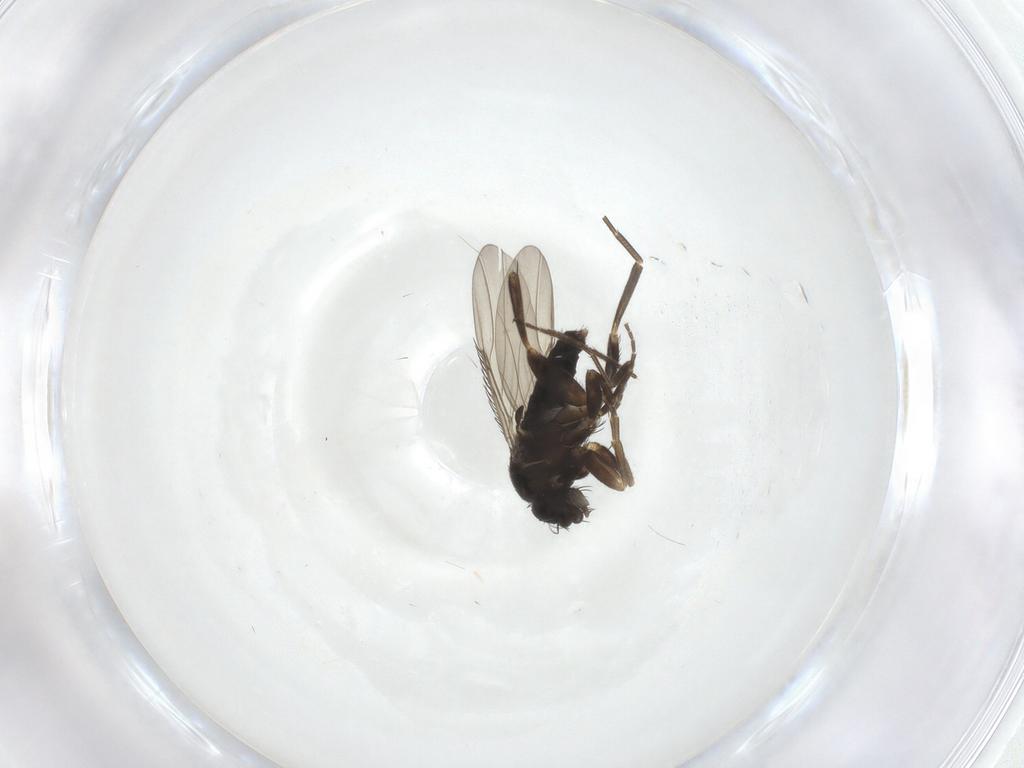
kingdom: Animalia
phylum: Arthropoda
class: Insecta
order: Diptera
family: Phoridae
